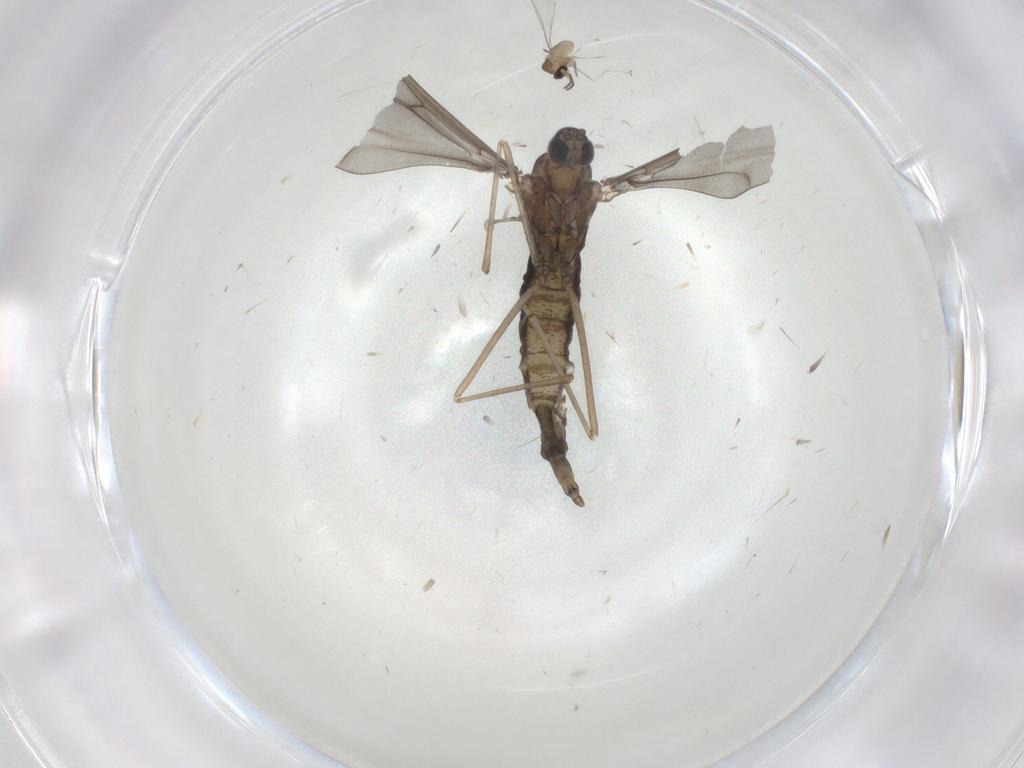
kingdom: Animalia
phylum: Arthropoda
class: Insecta
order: Diptera
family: Cecidomyiidae
